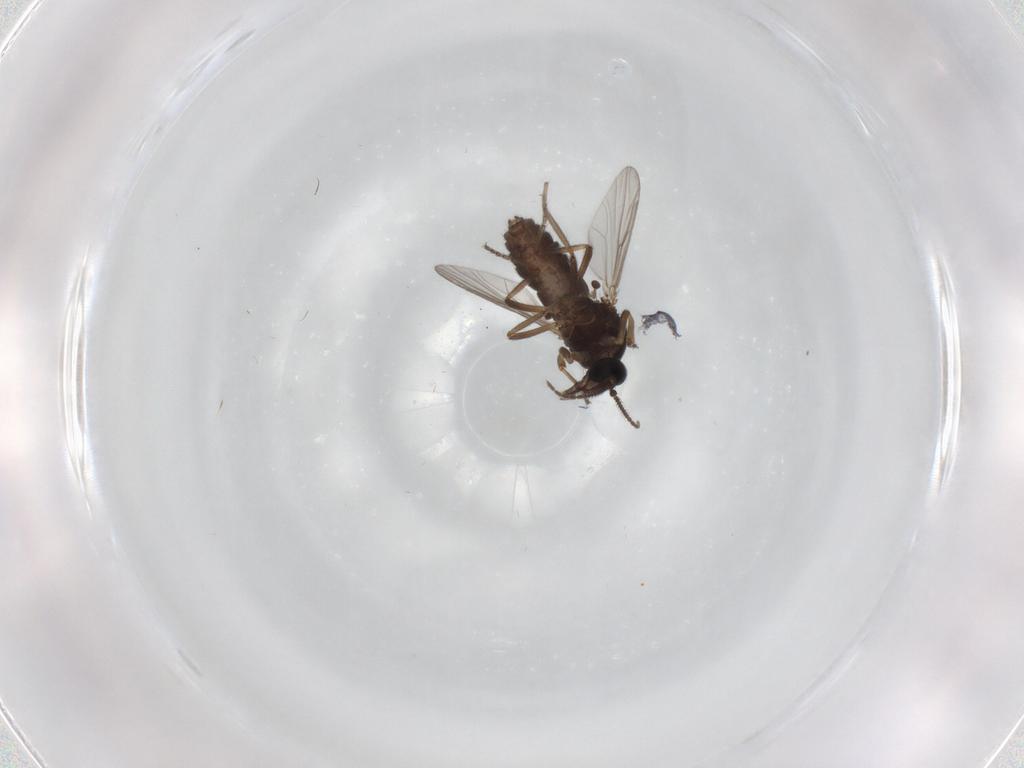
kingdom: Animalia
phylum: Arthropoda
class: Insecta
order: Diptera
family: Ceratopogonidae
